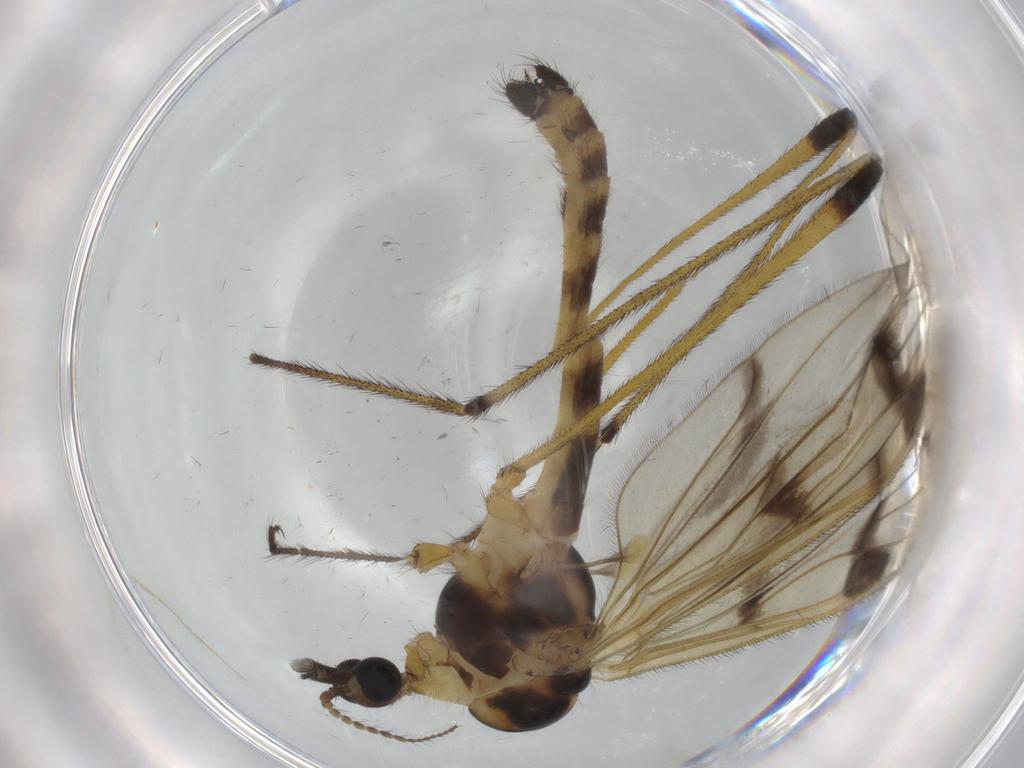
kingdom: Animalia
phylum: Arthropoda
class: Insecta
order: Diptera
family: Limoniidae
